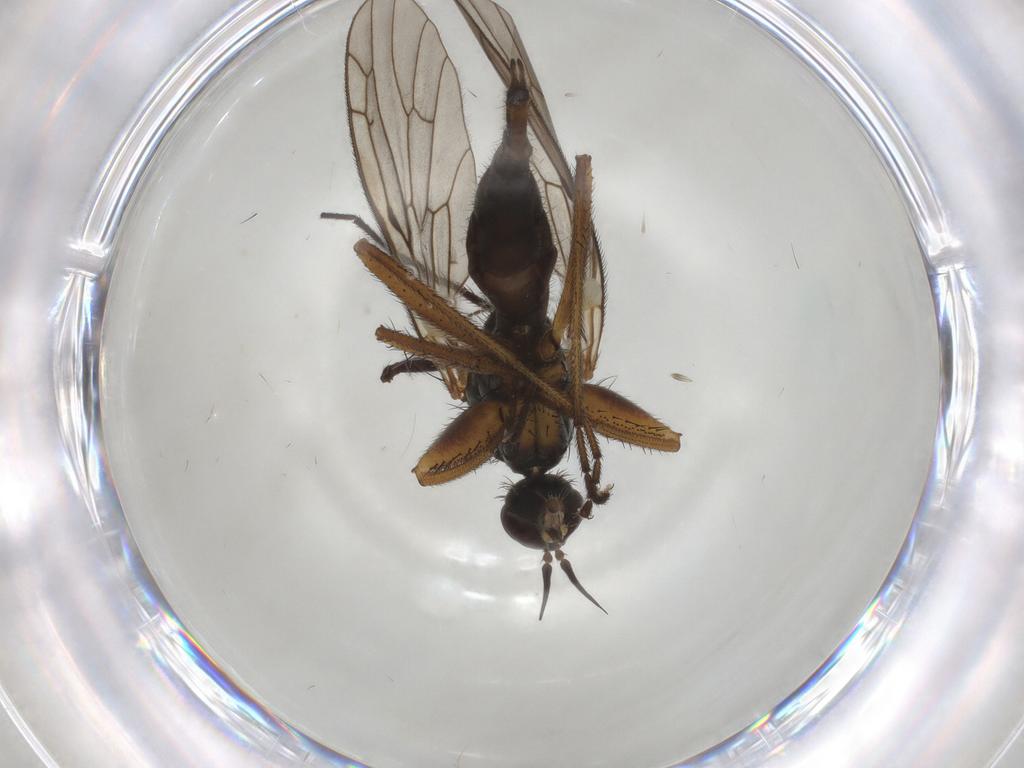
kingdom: Animalia
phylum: Arthropoda
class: Insecta
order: Diptera
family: Empididae
